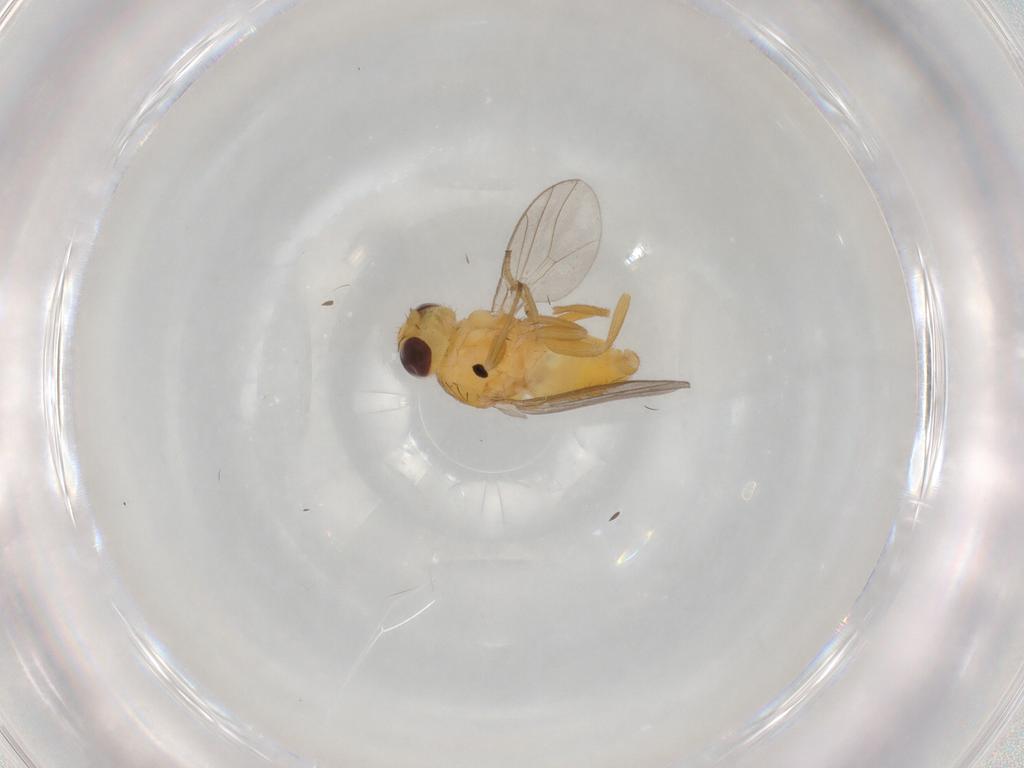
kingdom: Animalia
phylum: Arthropoda
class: Insecta
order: Diptera
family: Chloropidae
